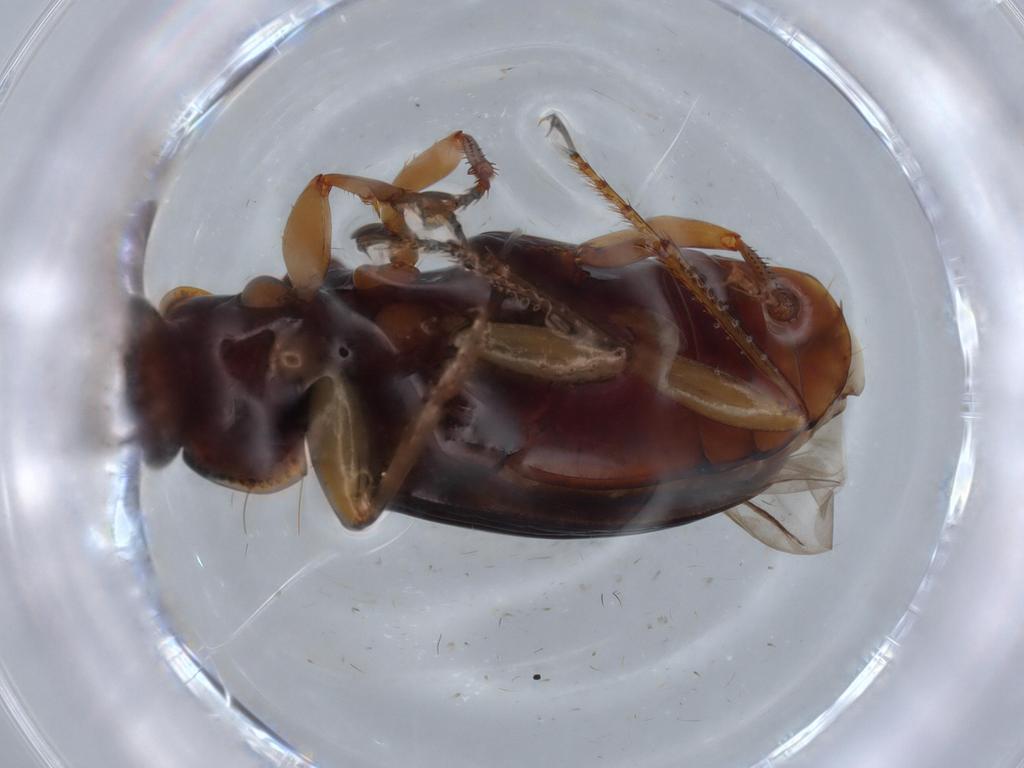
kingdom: Animalia
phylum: Arthropoda
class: Insecta
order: Coleoptera
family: Carabidae
